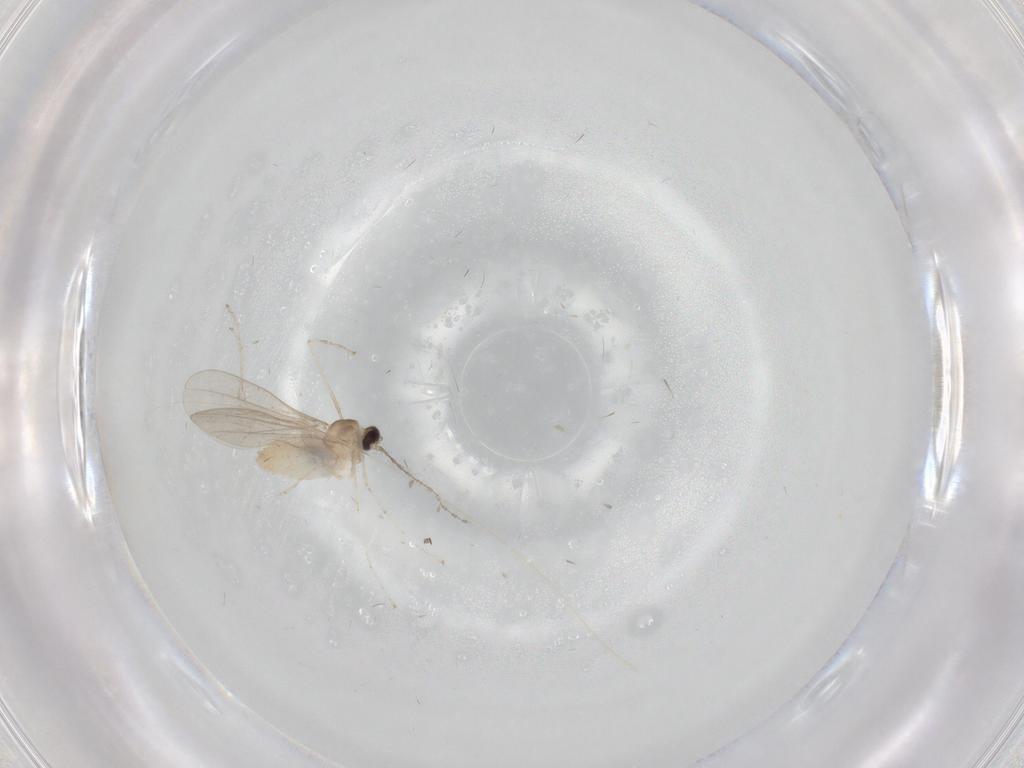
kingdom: Animalia
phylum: Arthropoda
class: Insecta
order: Diptera
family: Cecidomyiidae
